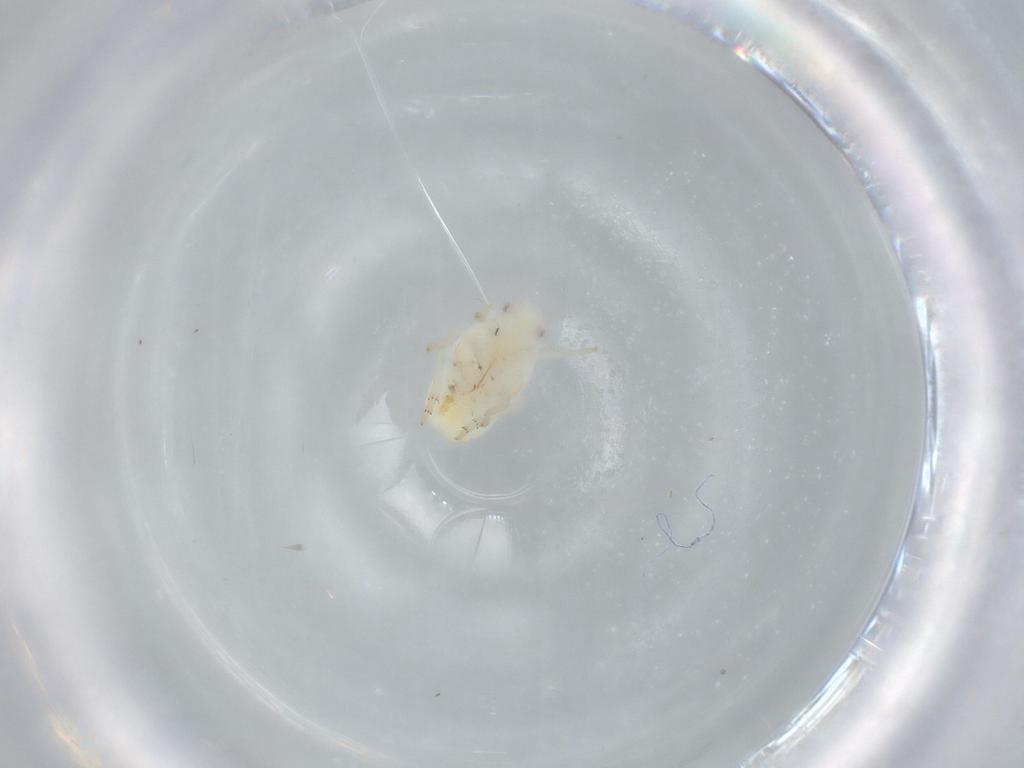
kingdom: Animalia
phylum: Arthropoda
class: Insecta
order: Hemiptera
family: Flatidae
